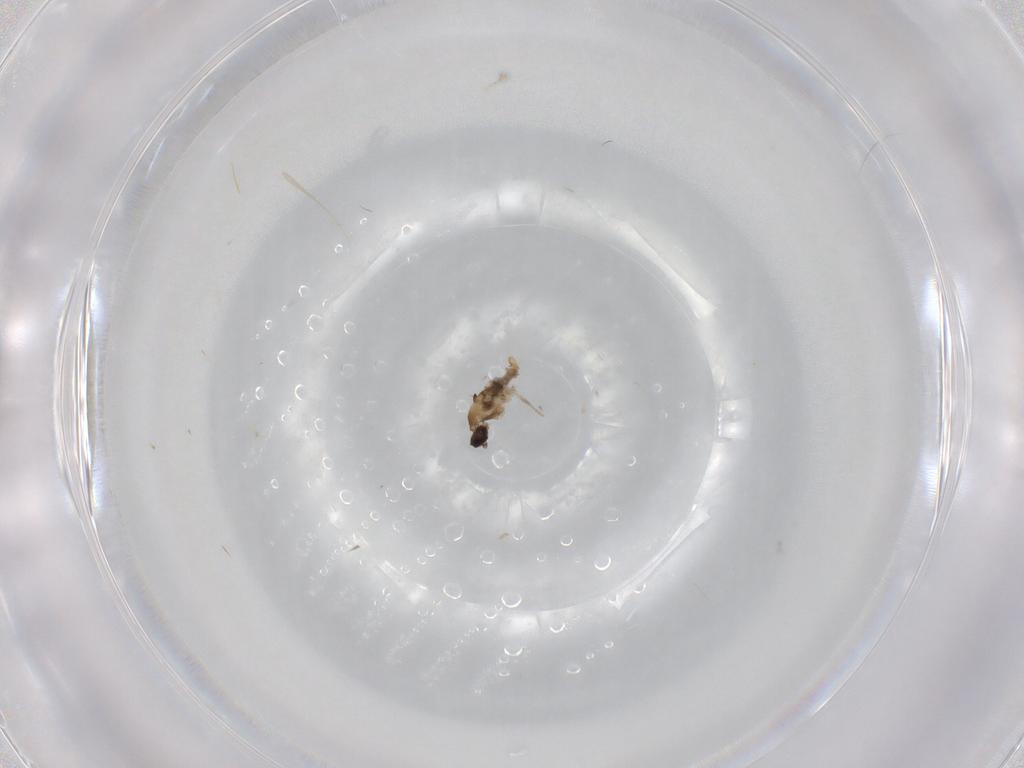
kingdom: Animalia
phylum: Arthropoda
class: Insecta
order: Diptera
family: Cecidomyiidae
